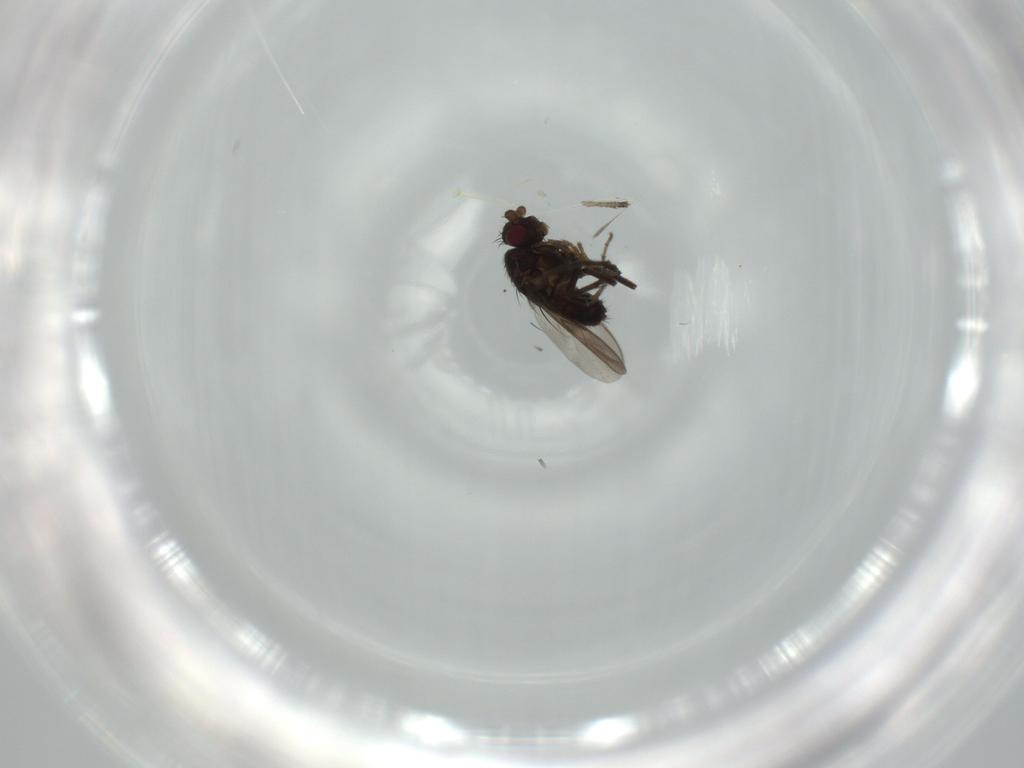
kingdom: Animalia
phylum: Arthropoda
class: Insecta
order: Diptera
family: Sphaeroceridae
